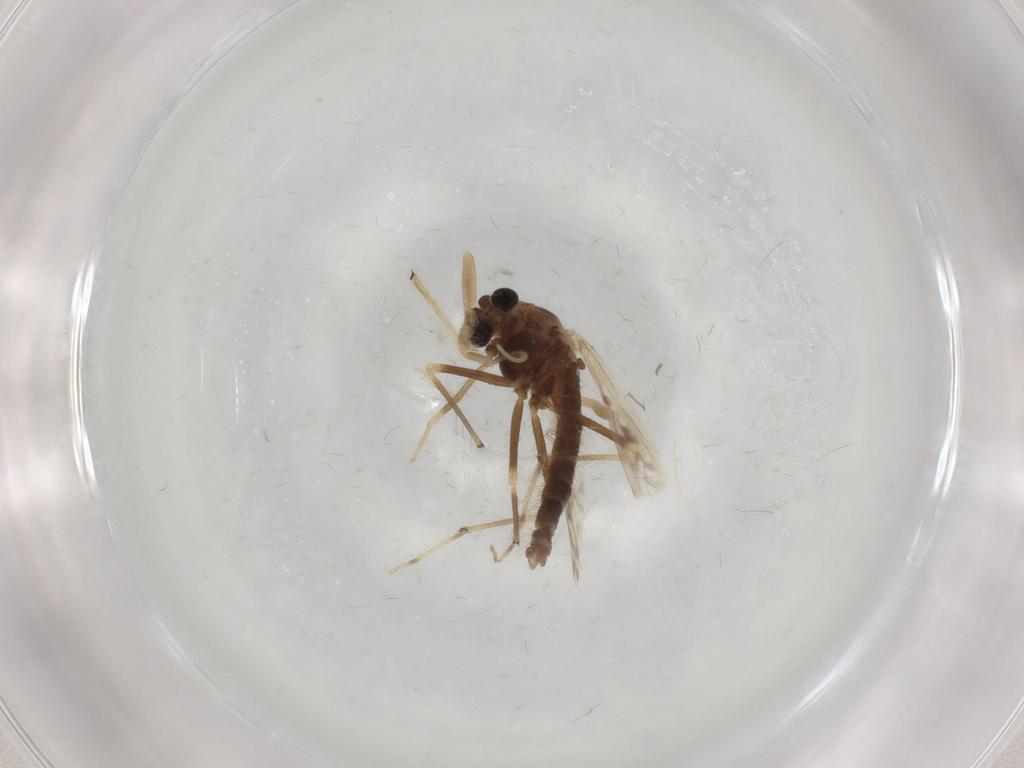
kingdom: Animalia
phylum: Arthropoda
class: Insecta
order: Diptera
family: Chironomidae
